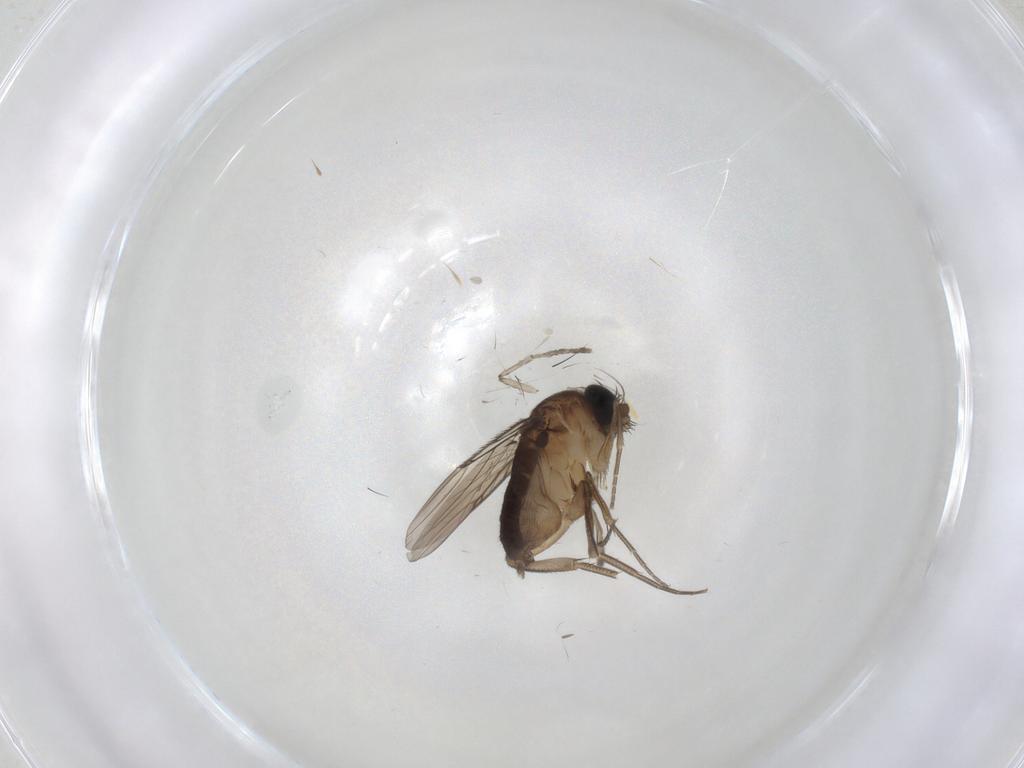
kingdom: Animalia
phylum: Arthropoda
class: Insecta
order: Diptera
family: Phoridae
